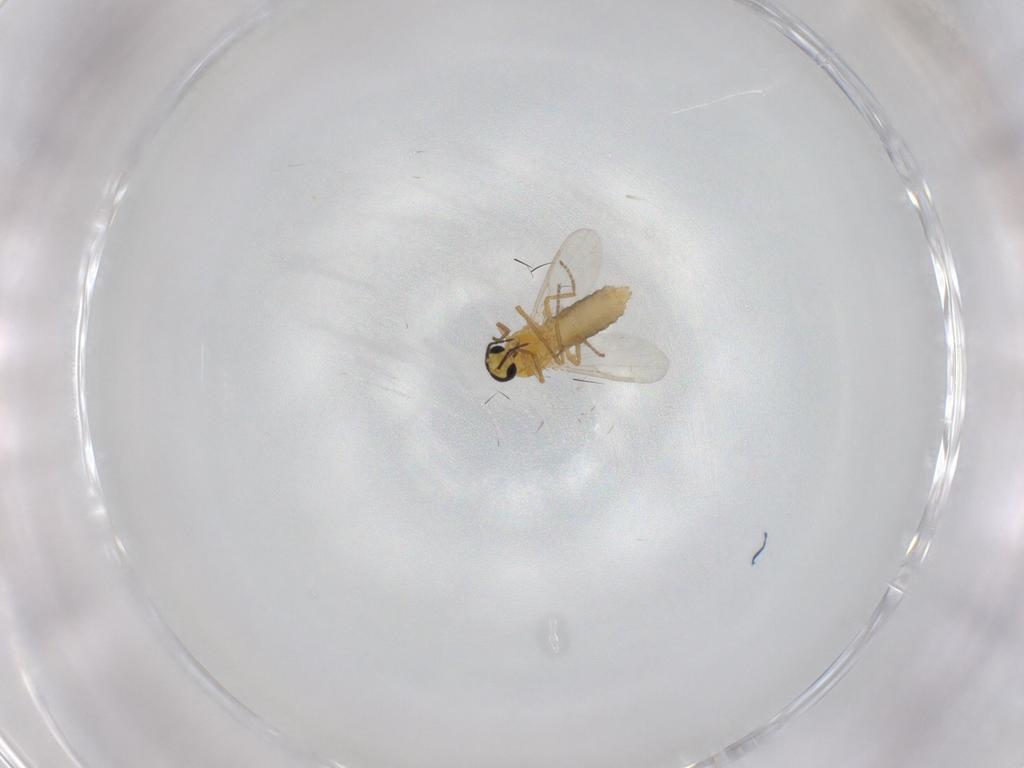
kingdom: Animalia
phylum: Arthropoda
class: Insecta
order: Diptera
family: Ceratopogonidae
